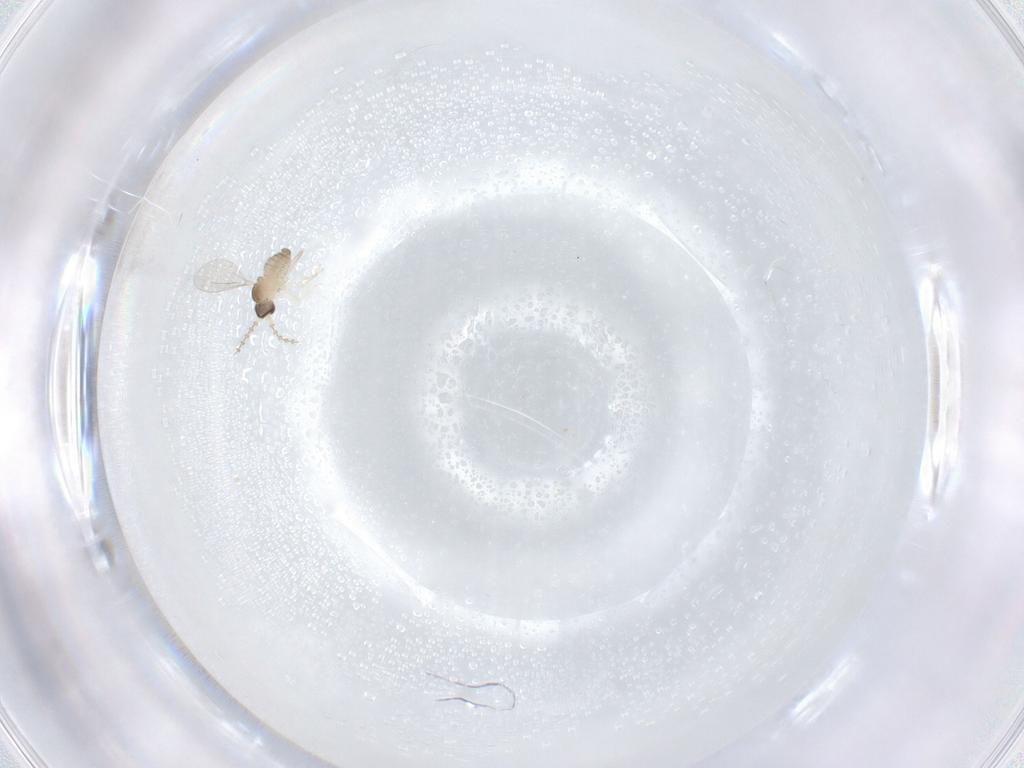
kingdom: Animalia
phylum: Arthropoda
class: Insecta
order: Diptera
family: Cecidomyiidae
